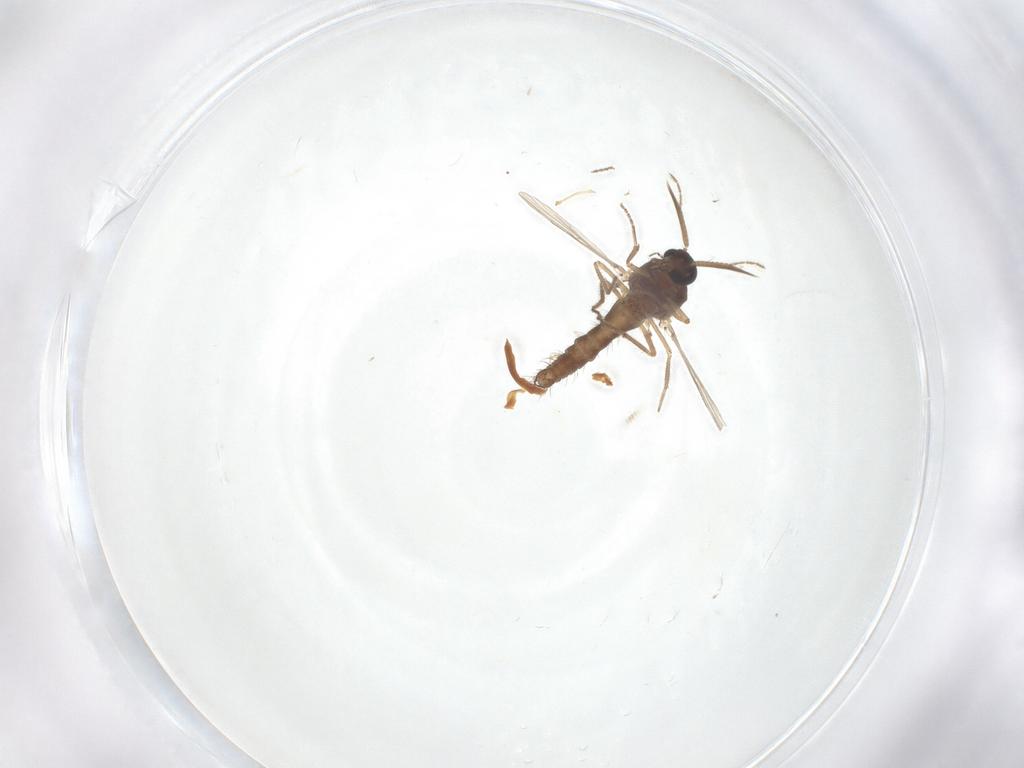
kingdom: Animalia
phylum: Arthropoda
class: Insecta
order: Diptera
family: Ceratopogonidae
